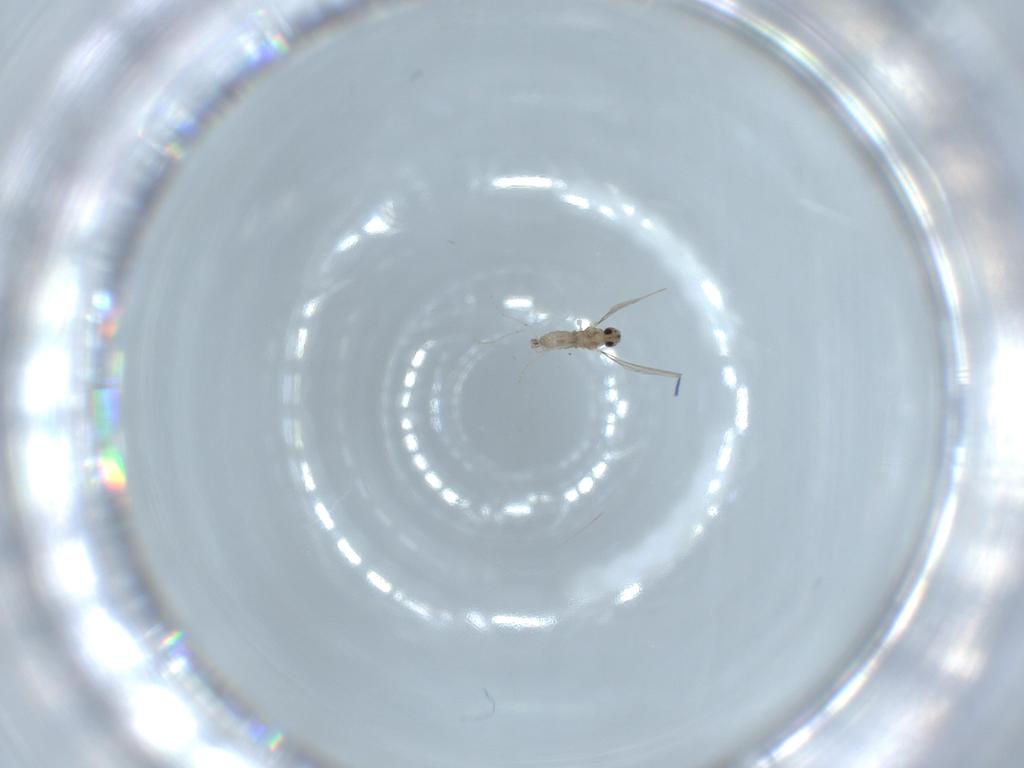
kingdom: Animalia
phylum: Arthropoda
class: Insecta
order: Diptera
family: Cecidomyiidae
